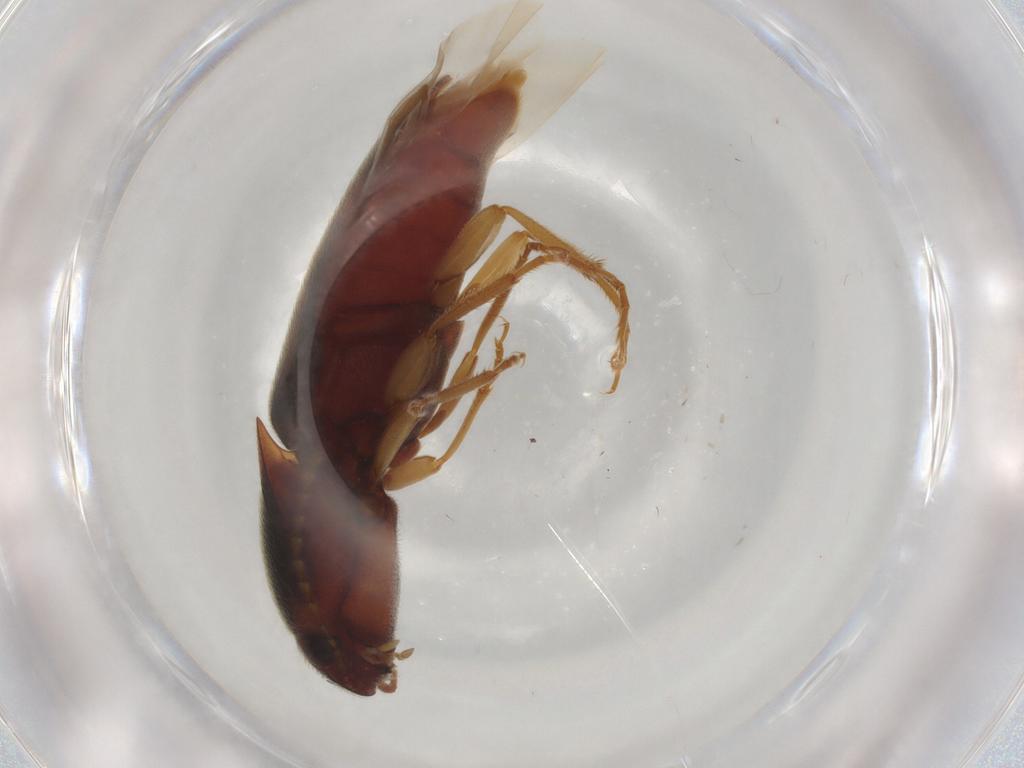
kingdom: Animalia
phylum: Arthropoda
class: Insecta
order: Coleoptera
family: Elateridae
